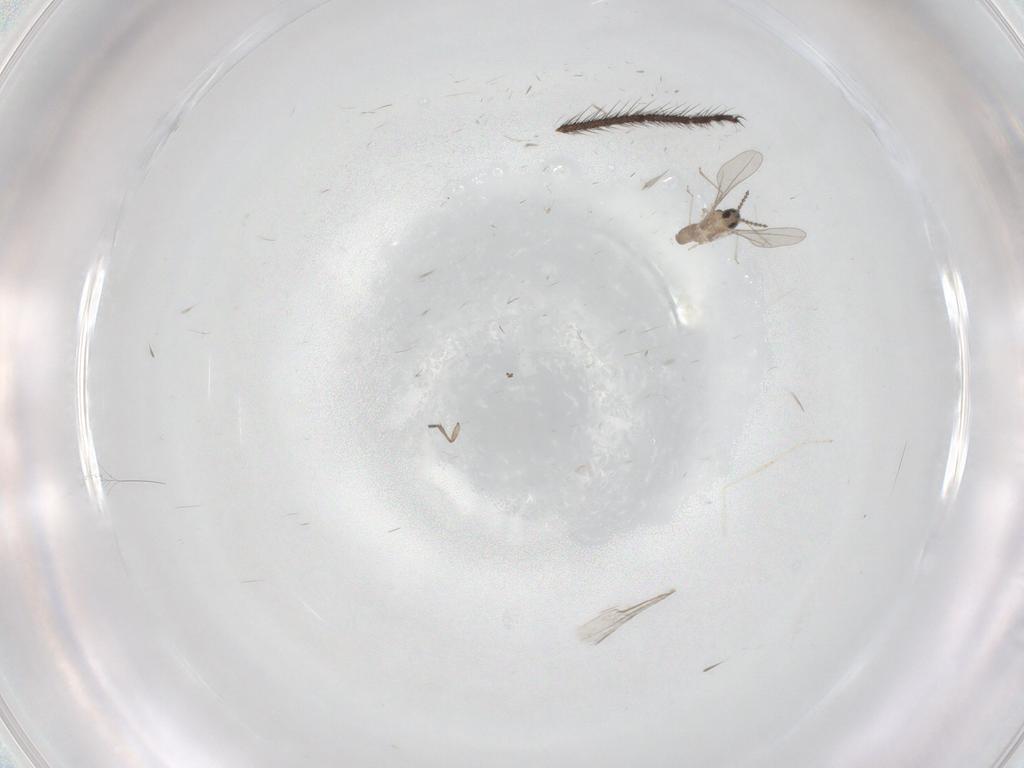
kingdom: Animalia
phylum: Arthropoda
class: Insecta
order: Diptera
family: Cecidomyiidae
